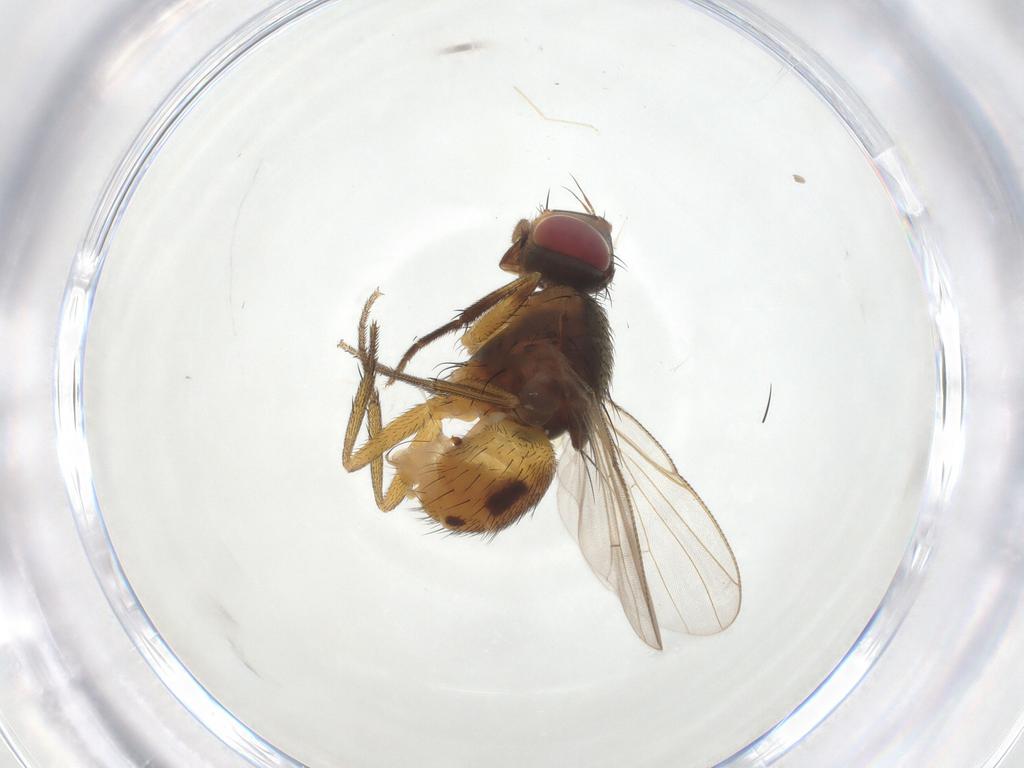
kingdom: Animalia
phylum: Arthropoda
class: Insecta
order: Diptera
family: Muscidae
